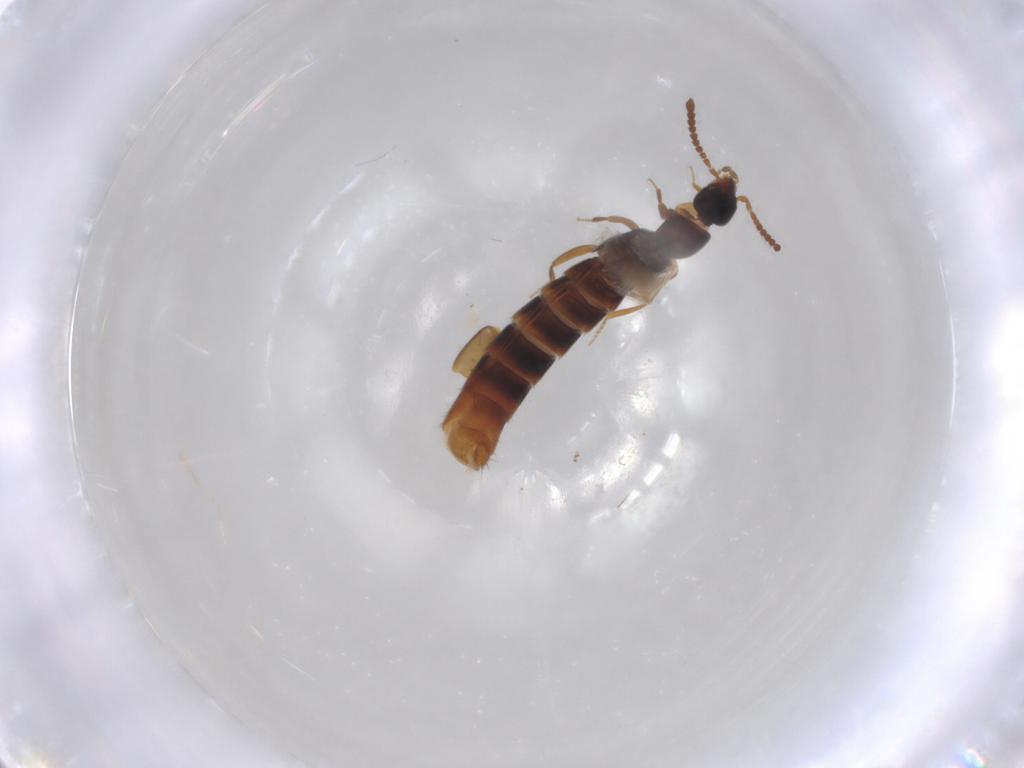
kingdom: Animalia
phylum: Arthropoda
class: Insecta
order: Coleoptera
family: Staphylinidae
